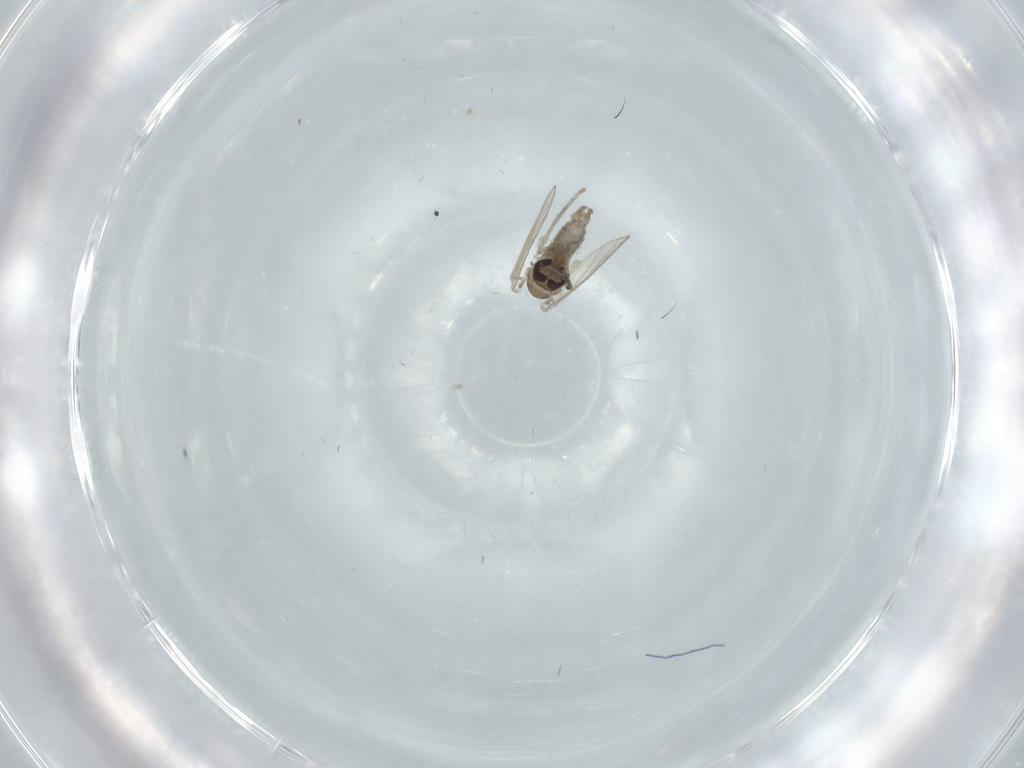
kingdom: Animalia
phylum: Arthropoda
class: Insecta
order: Diptera
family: Psychodidae
